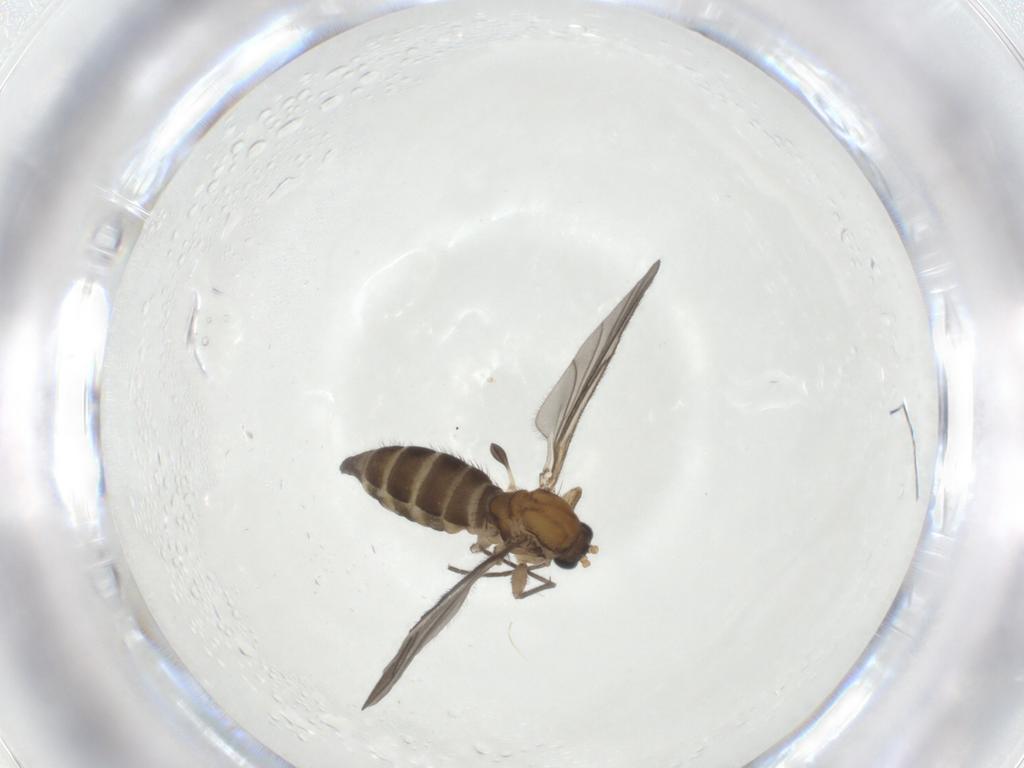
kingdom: Animalia
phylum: Arthropoda
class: Insecta
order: Diptera
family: Sciaridae
